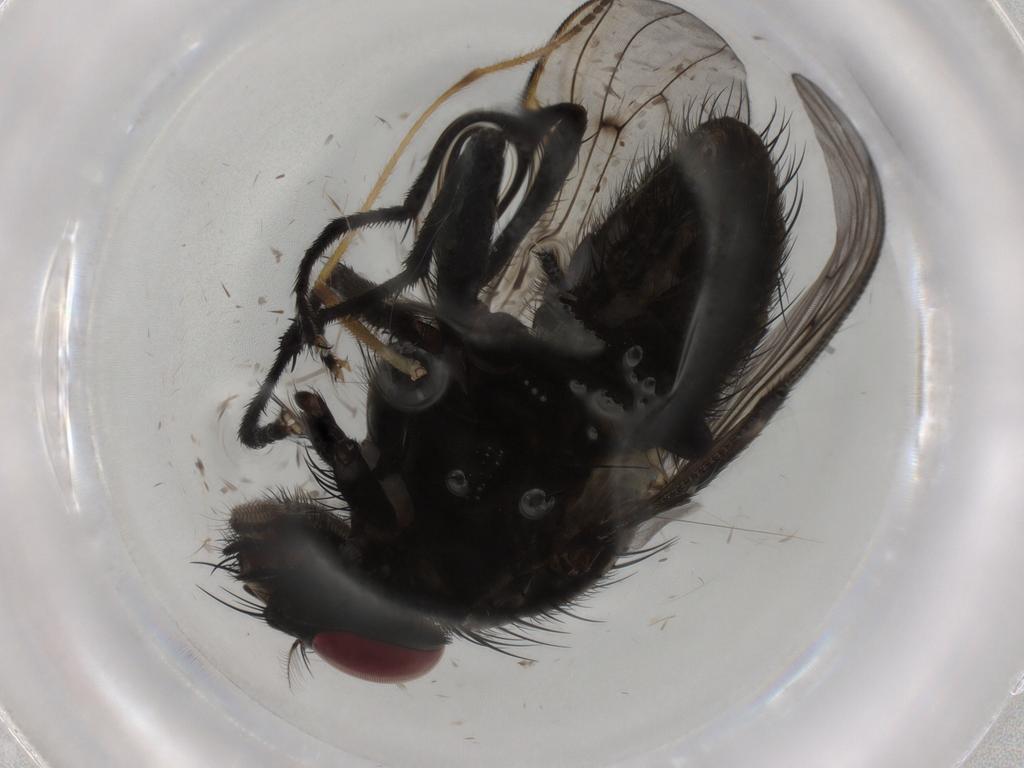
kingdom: Animalia
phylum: Arthropoda
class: Insecta
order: Diptera
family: Muscidae
